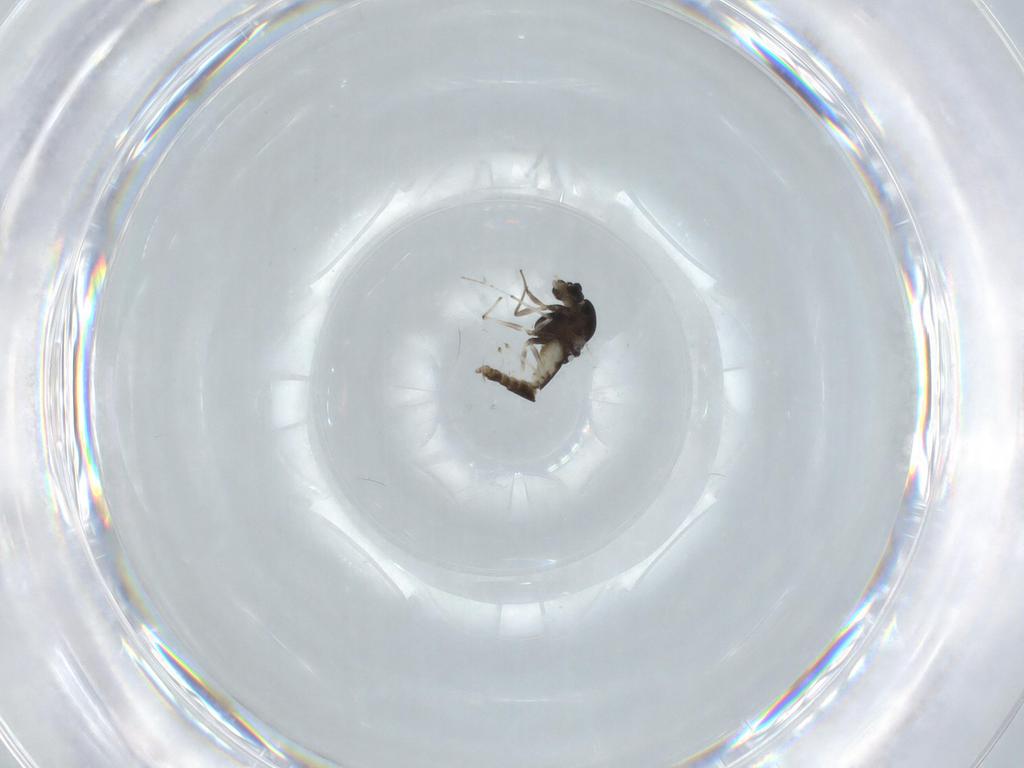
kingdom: Animalia
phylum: Arthropoda
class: Insecta
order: Diptera
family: Chironomidae
